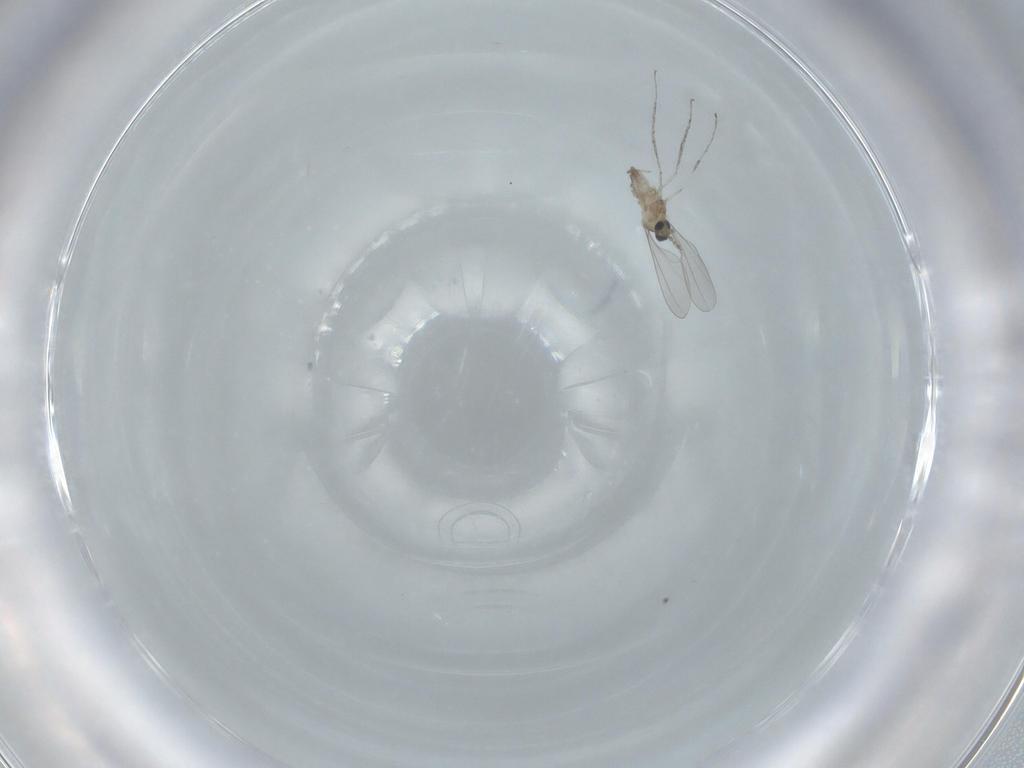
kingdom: Animalia
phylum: Arthropoda
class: Insecta
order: Diptera
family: Cecidomyiidae
